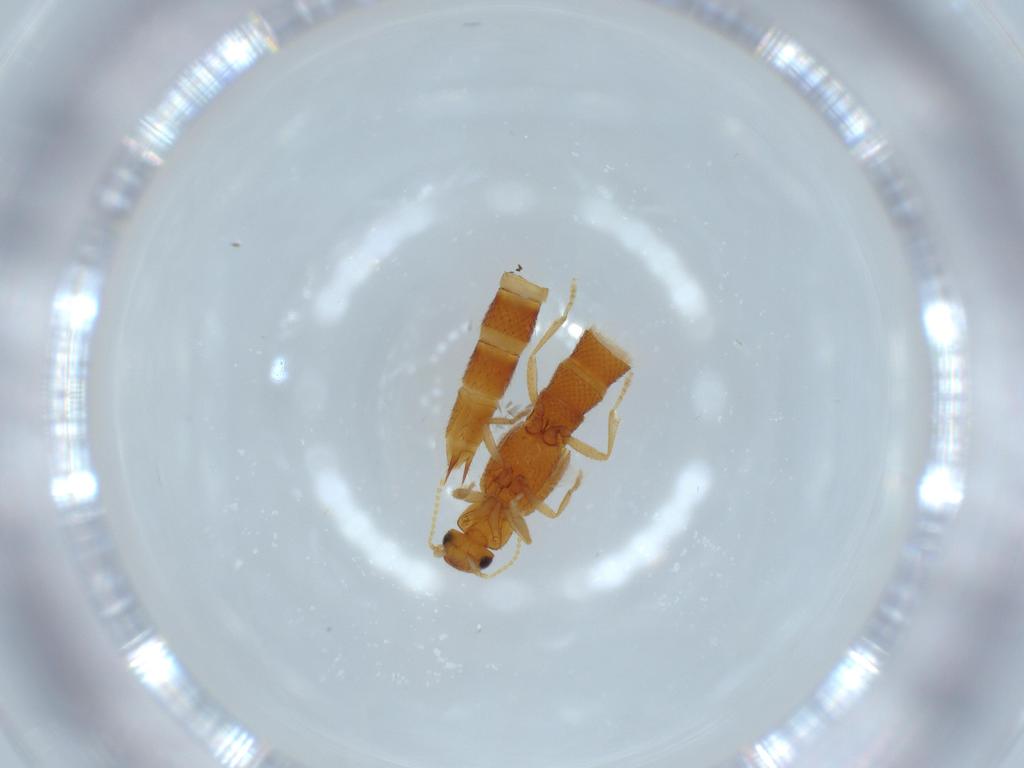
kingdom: Animalia
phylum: Arthropoda
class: Insecta
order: Coleoptera
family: Staphylinidae
